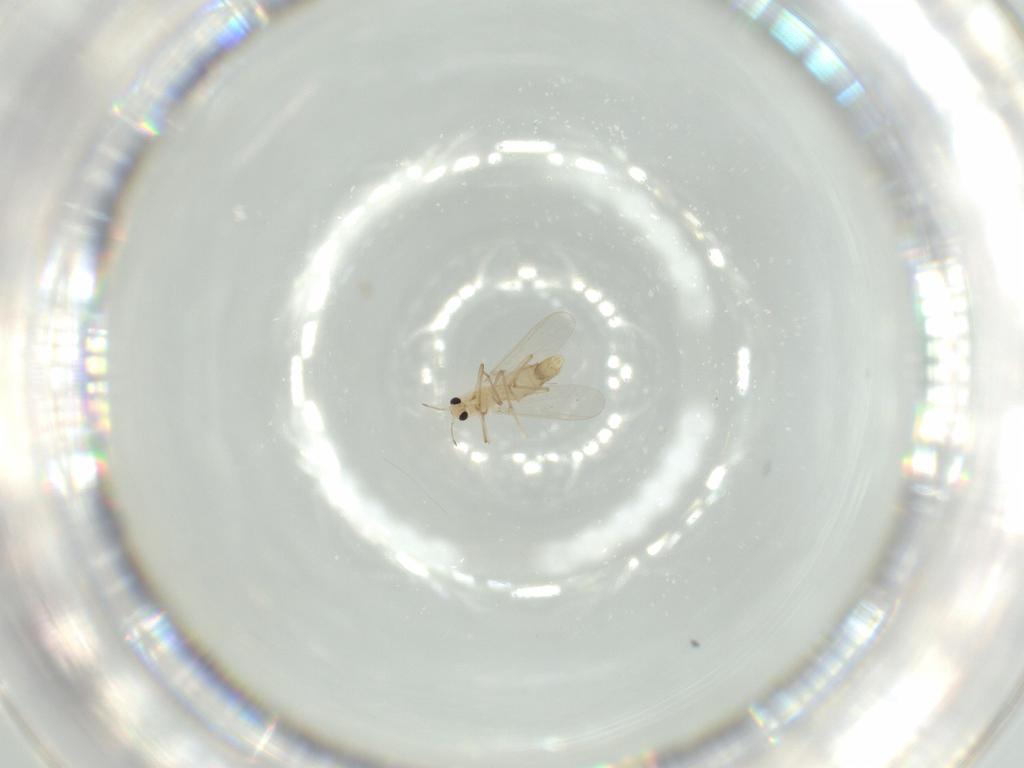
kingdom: Animalia
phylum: Arthropoda
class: Insecta
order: Diptera
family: Chironomidae
